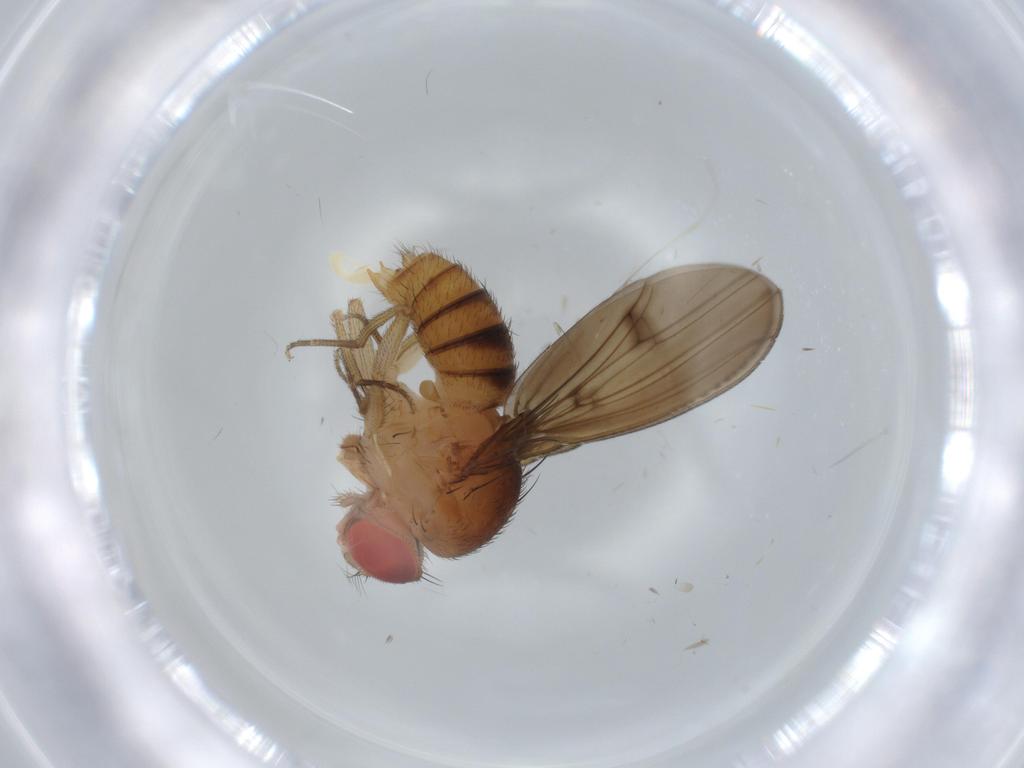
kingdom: Animalia
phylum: Arthropoda
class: Insecta
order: Diptera
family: Drosophilidae
